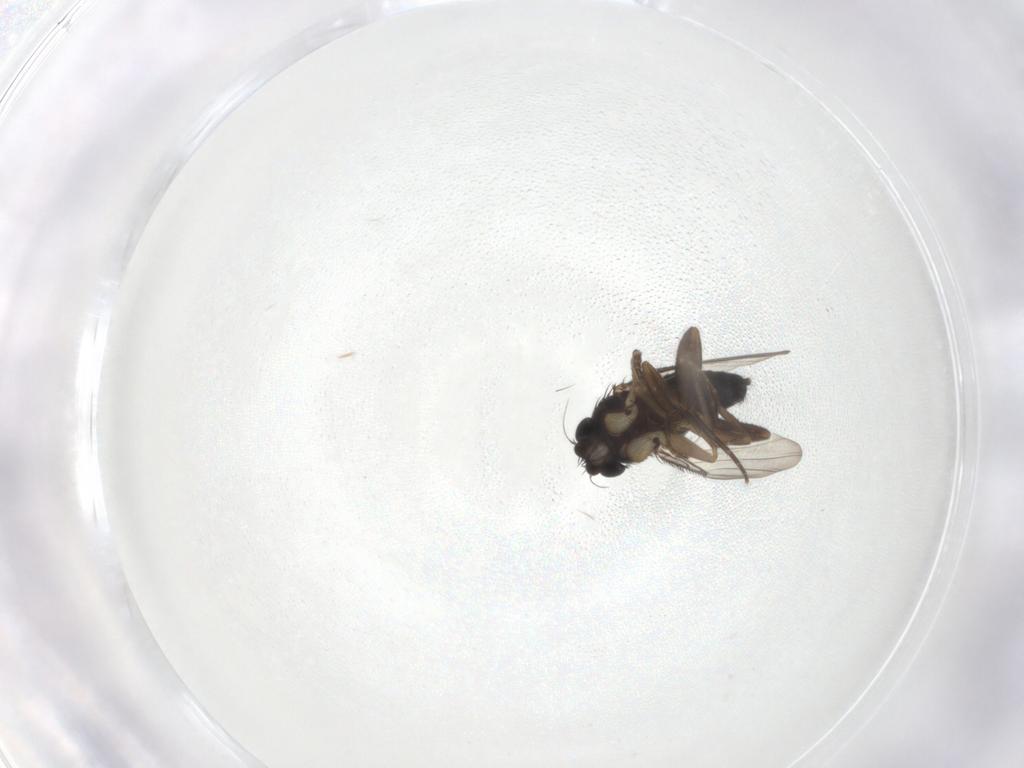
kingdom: Animalia
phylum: Arthropoda
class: Insecta
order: Diptera
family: Phoridae
